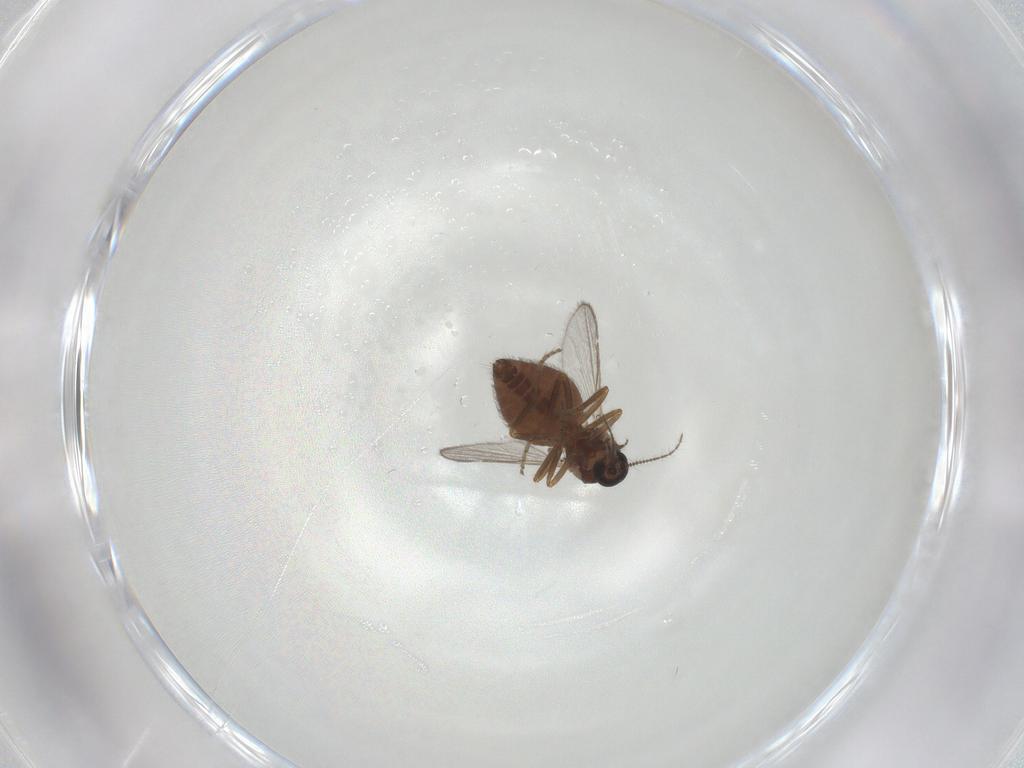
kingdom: Animalia
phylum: Arthropoda
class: Insecta
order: Diptera
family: Ceratopogonidae
